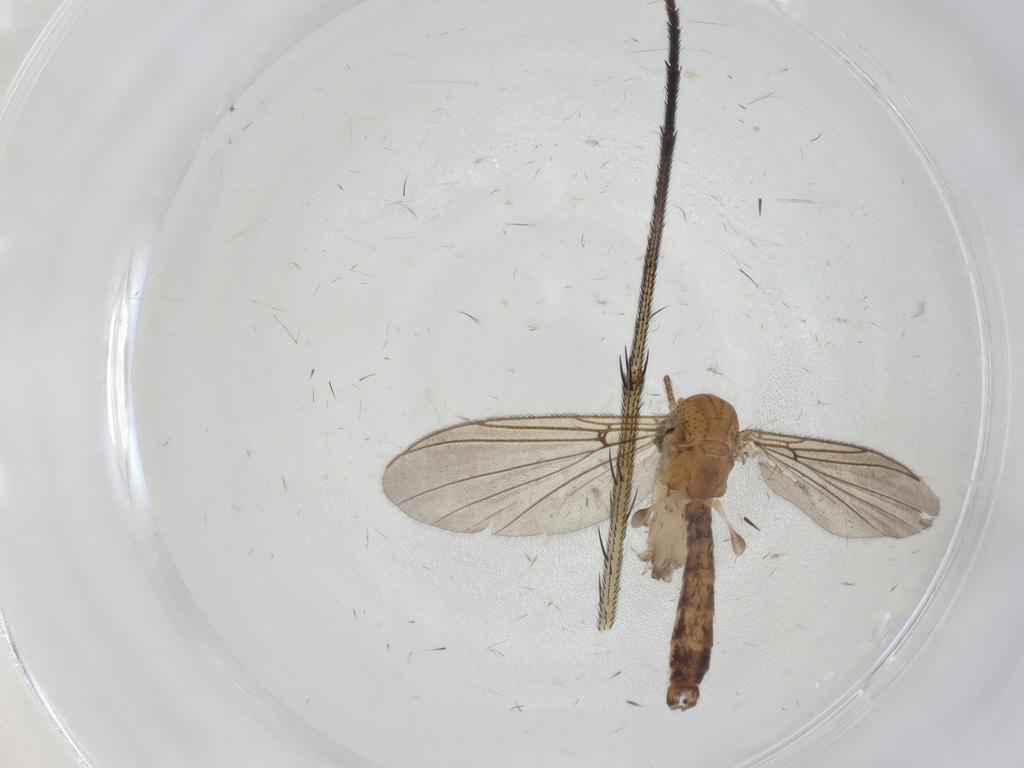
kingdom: Animalia
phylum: Arthropoda
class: Insecta
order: Diptera
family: Dolichopodidae
